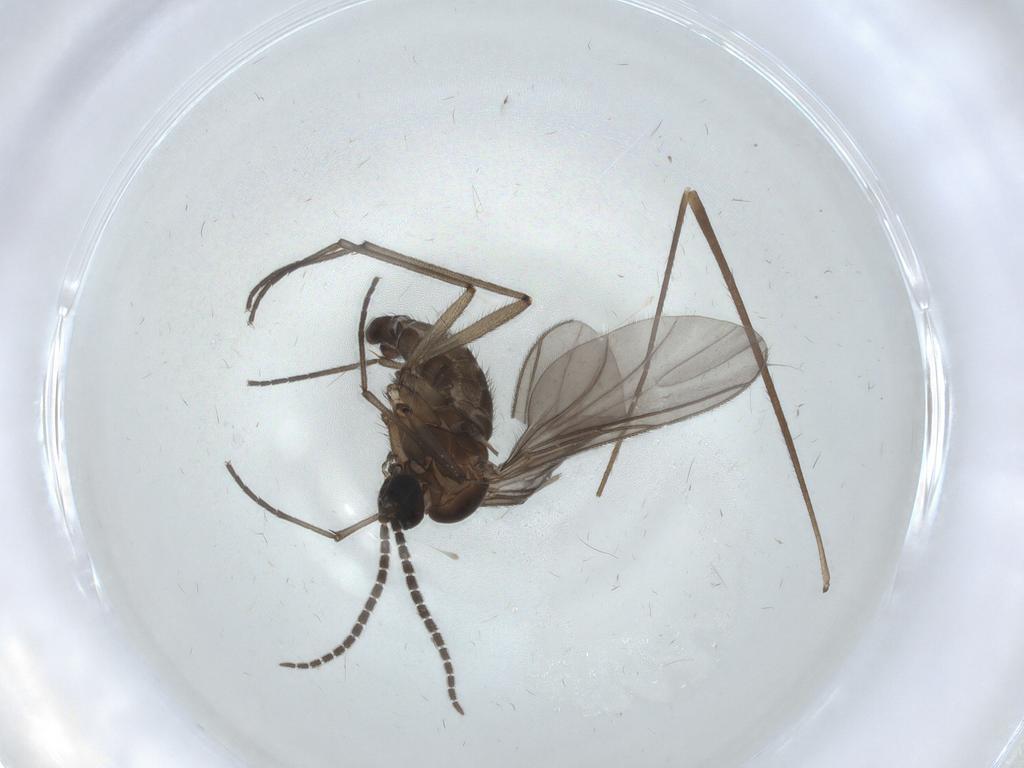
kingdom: Animalia
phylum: Arthropoda
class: Insecta
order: Diptera
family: Sciaridae
